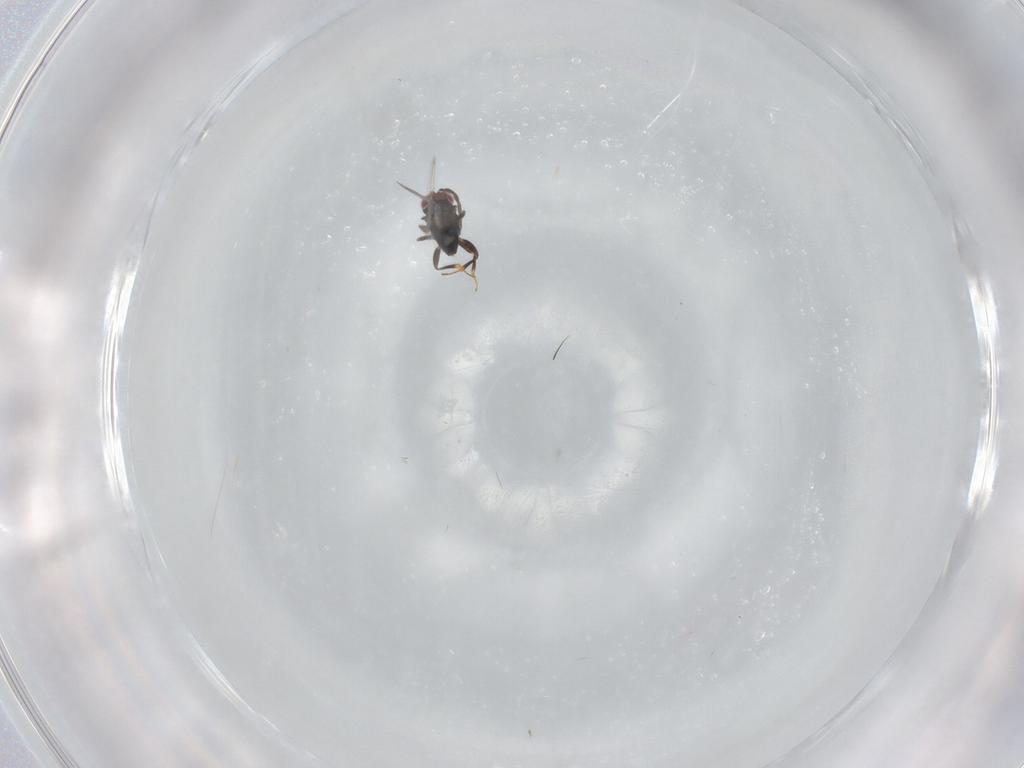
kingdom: Animalia
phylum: Arthropoda
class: Insecta
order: Hymenoptera
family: Azotidae
